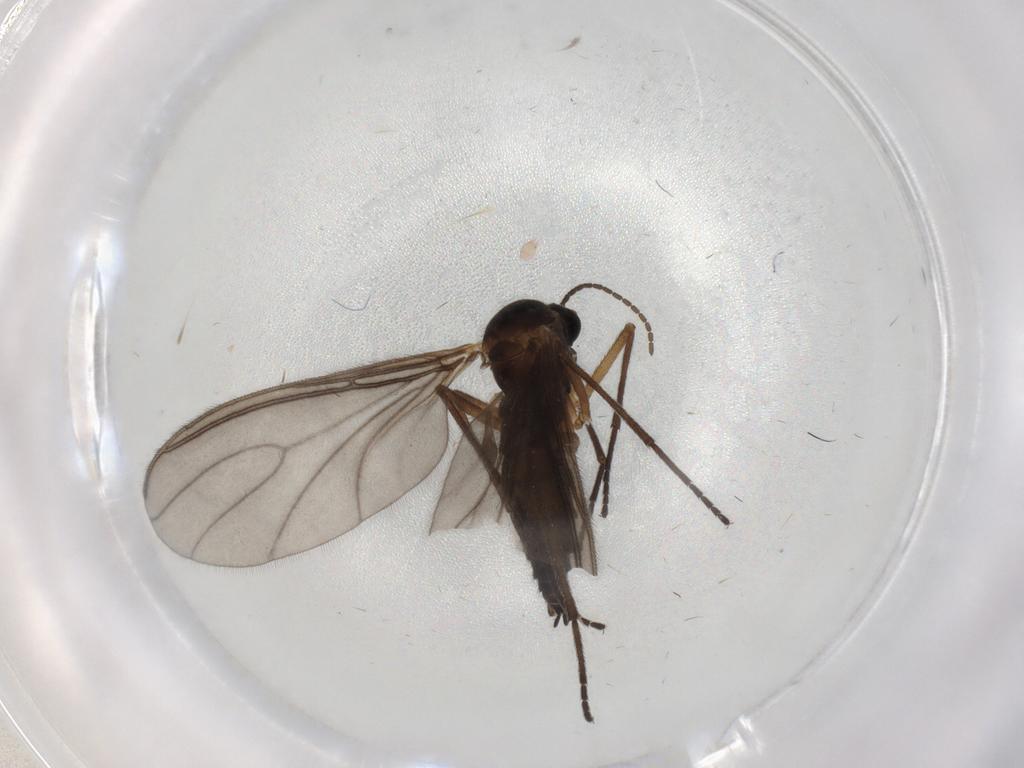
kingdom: Animalia
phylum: Arthropoda
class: Insecta
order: Diptera
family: Sciaridae
